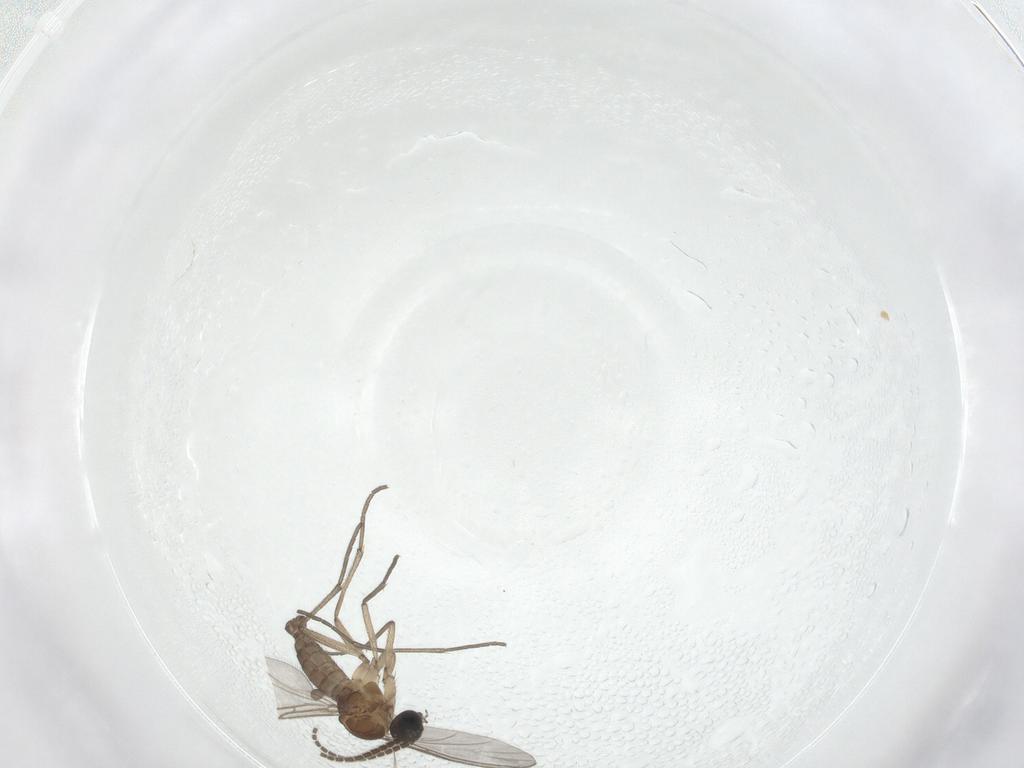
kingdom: Animalia
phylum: Arthropoda
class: Insecta
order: Diptera
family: Sciaridae
